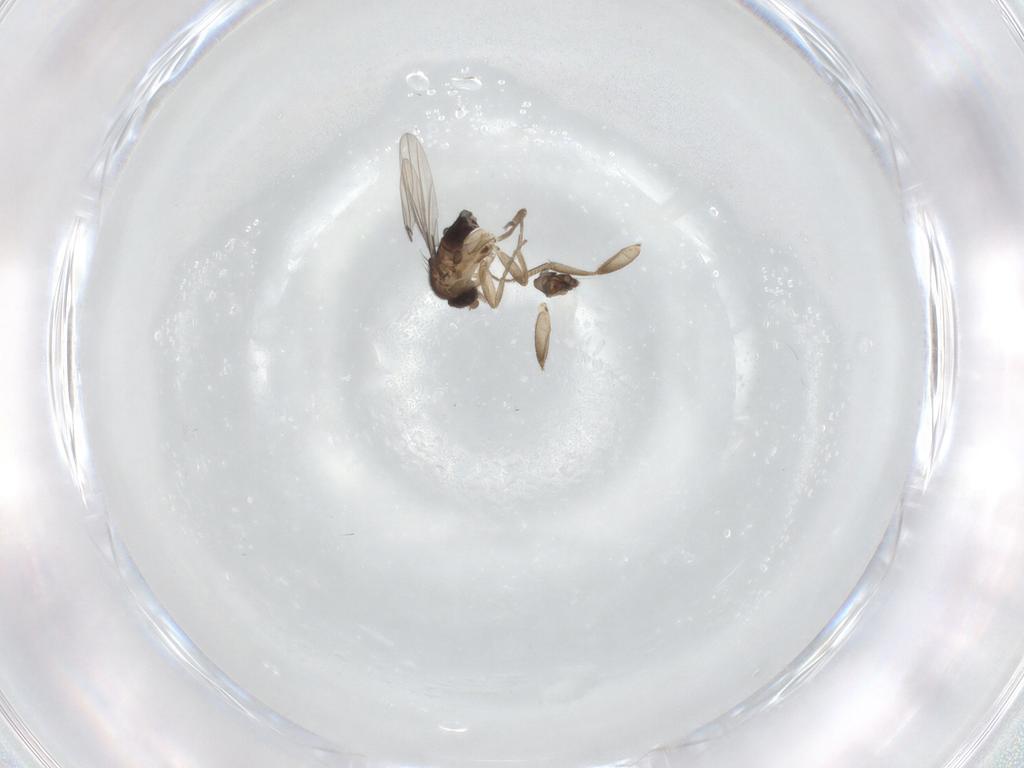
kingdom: Animalia
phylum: Arthropoda
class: Insecta
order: Diptera
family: Phoridae
